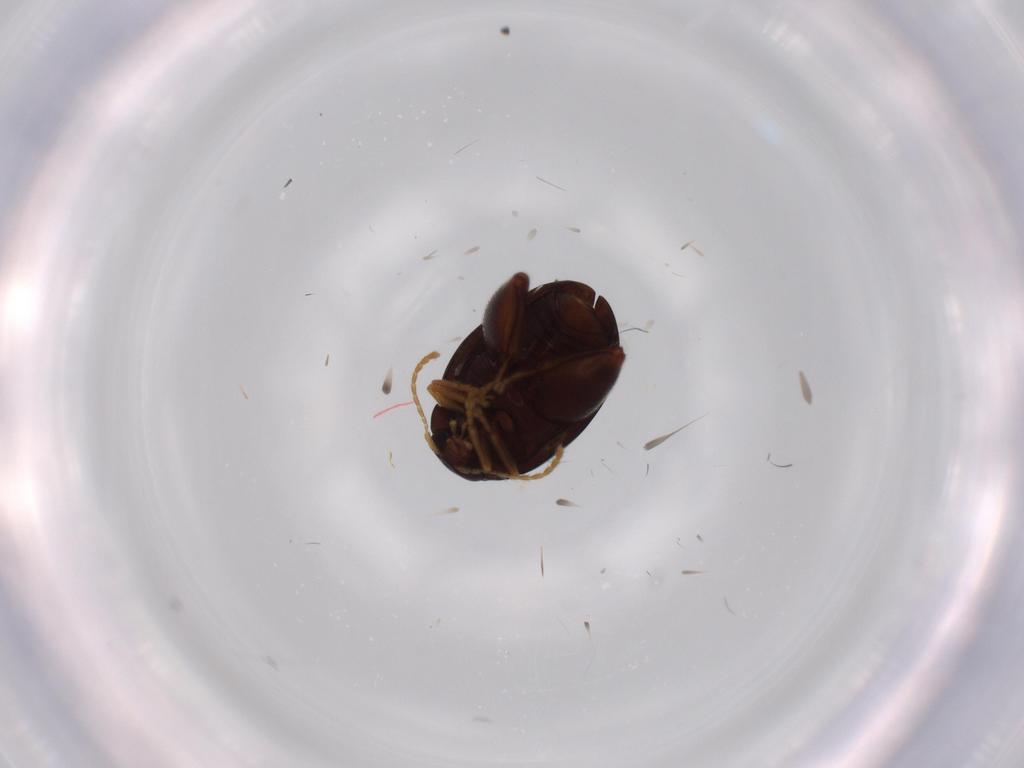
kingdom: Animalia
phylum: Arthropoda
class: Insecta
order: Coleoptera
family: Chrysomelidae
